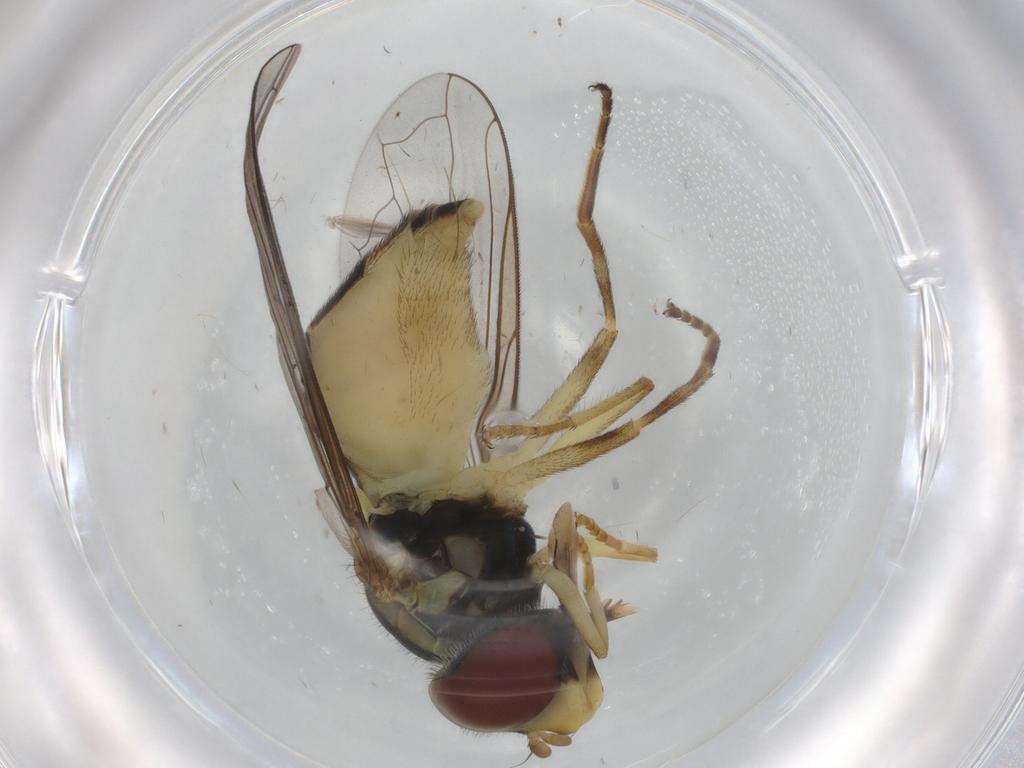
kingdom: Animalia
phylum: Arthropoda
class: Insecta
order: Diptera
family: Syrphidae
